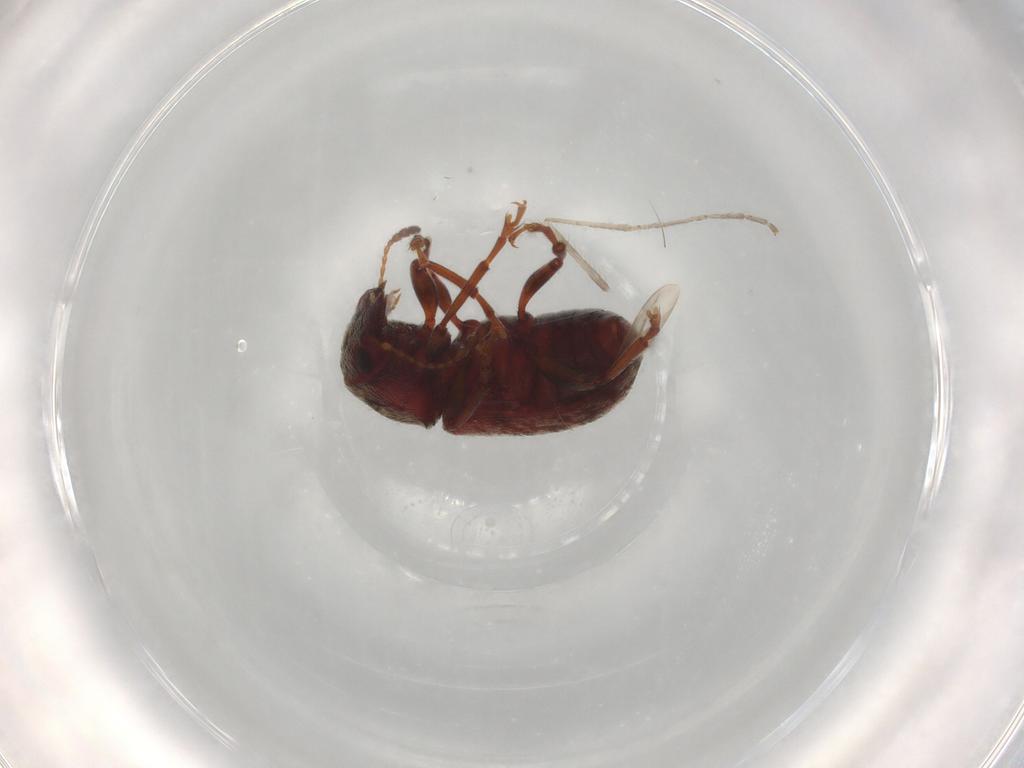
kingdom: Animalia
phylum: Arthropoda
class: Insecta
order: Coleoptera
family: Anthribidae
